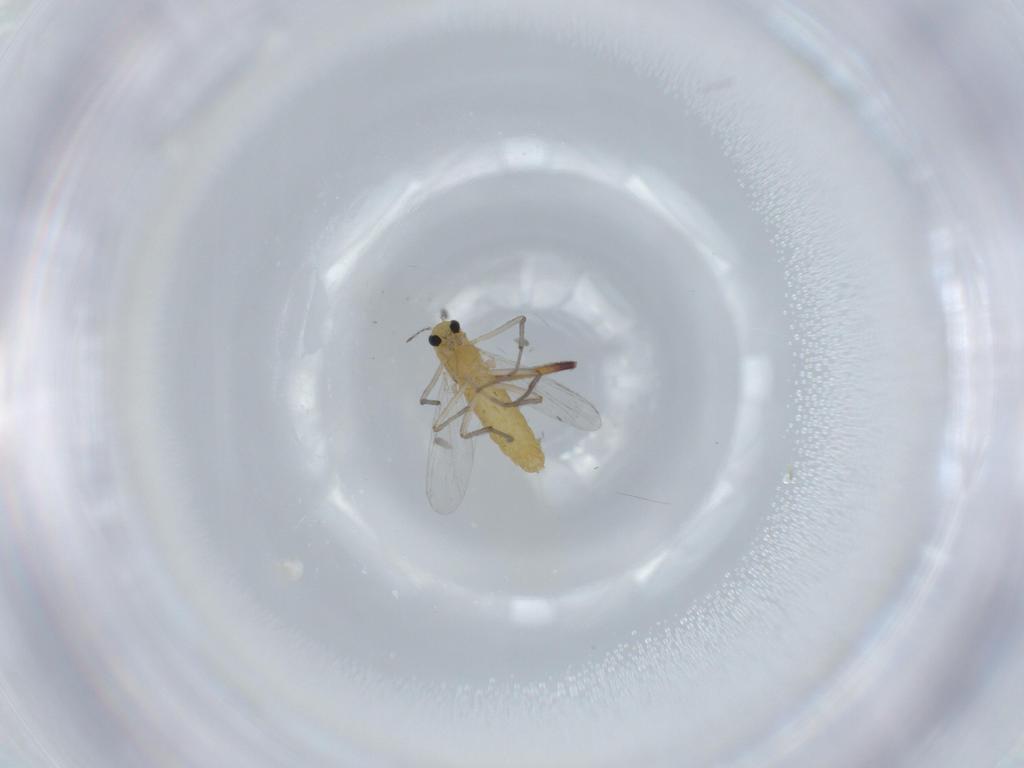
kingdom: Animalia
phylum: Arthropoda
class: Insecta
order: Diptera
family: Chironomidae
